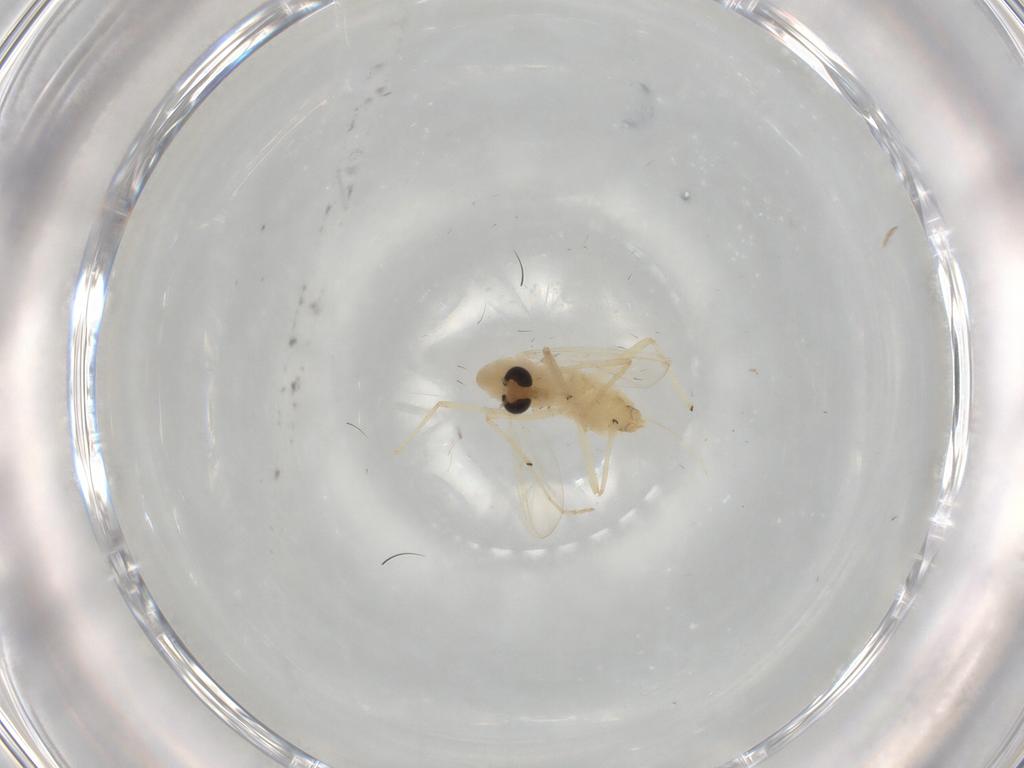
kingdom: Animalia
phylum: Arthropoda
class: Insecta
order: Diptera
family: Chironomidae
